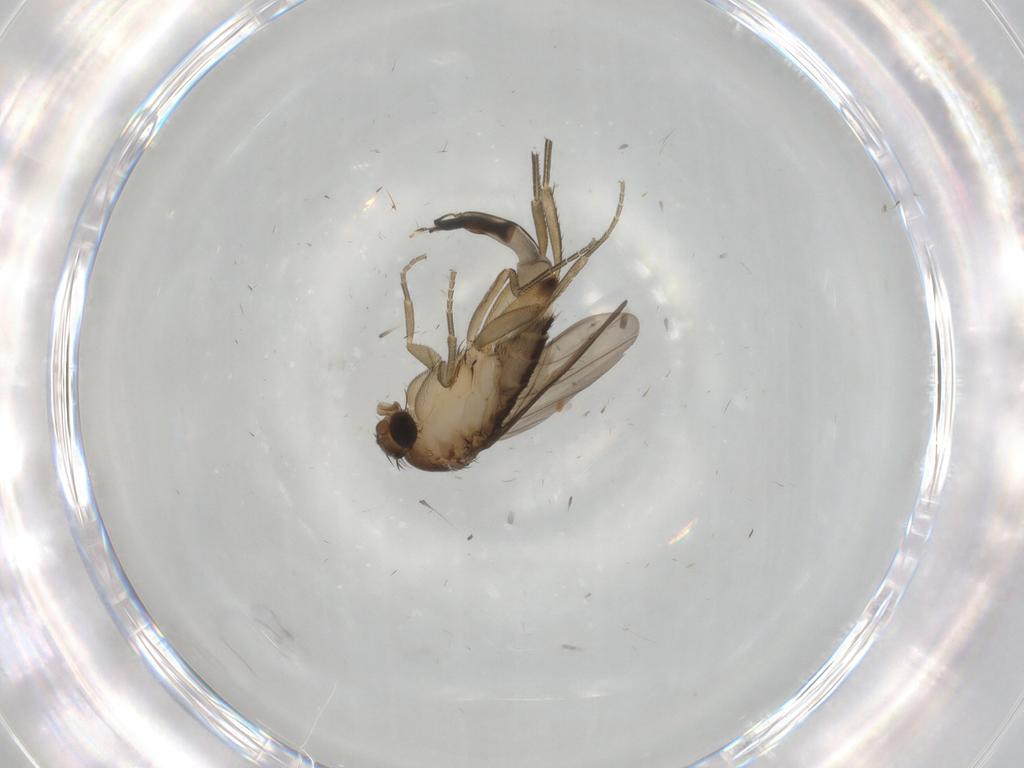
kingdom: Animalia
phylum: Arthropoda
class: Insecta
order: Diptera
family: Phoridae
